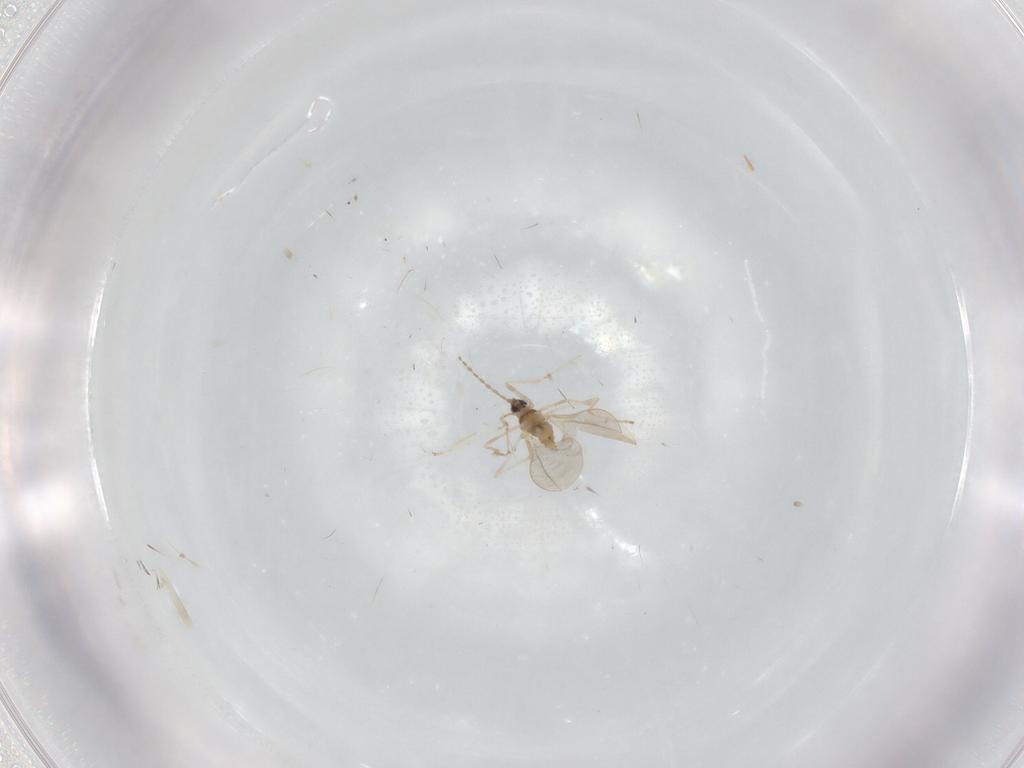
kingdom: Animalia
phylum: Arthropoda
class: Insecta
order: Diptera
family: Cecidomyiidae
